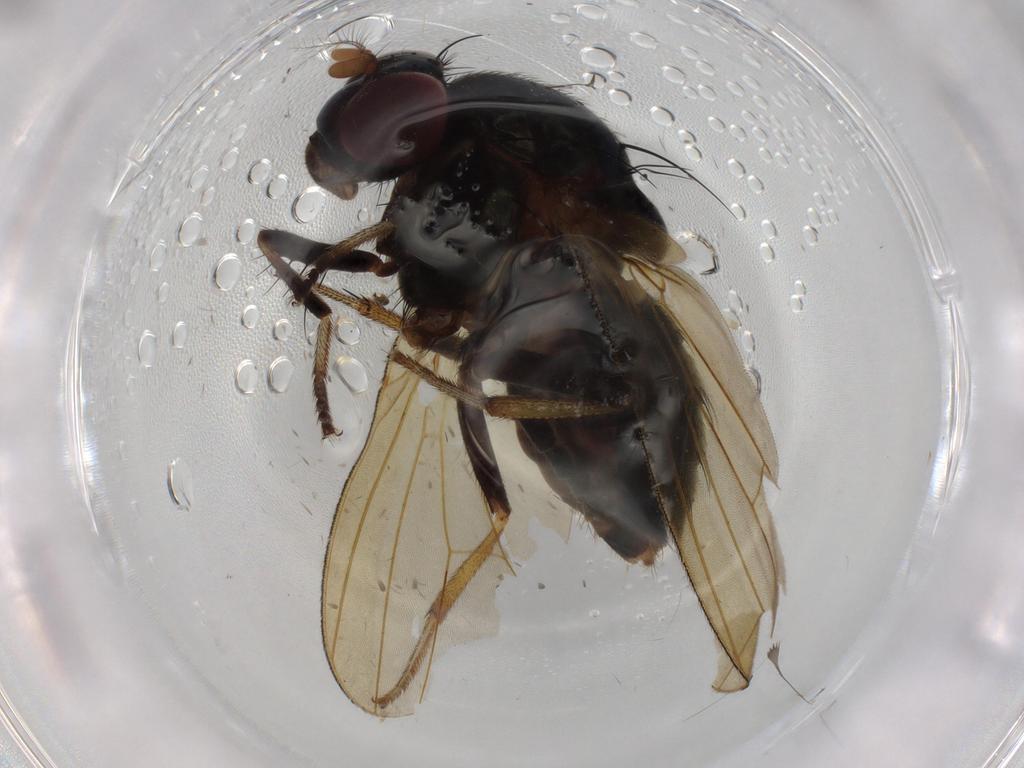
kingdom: Animalia
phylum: Arthropoda
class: Insecta
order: Diptera
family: Lauxaniidae
